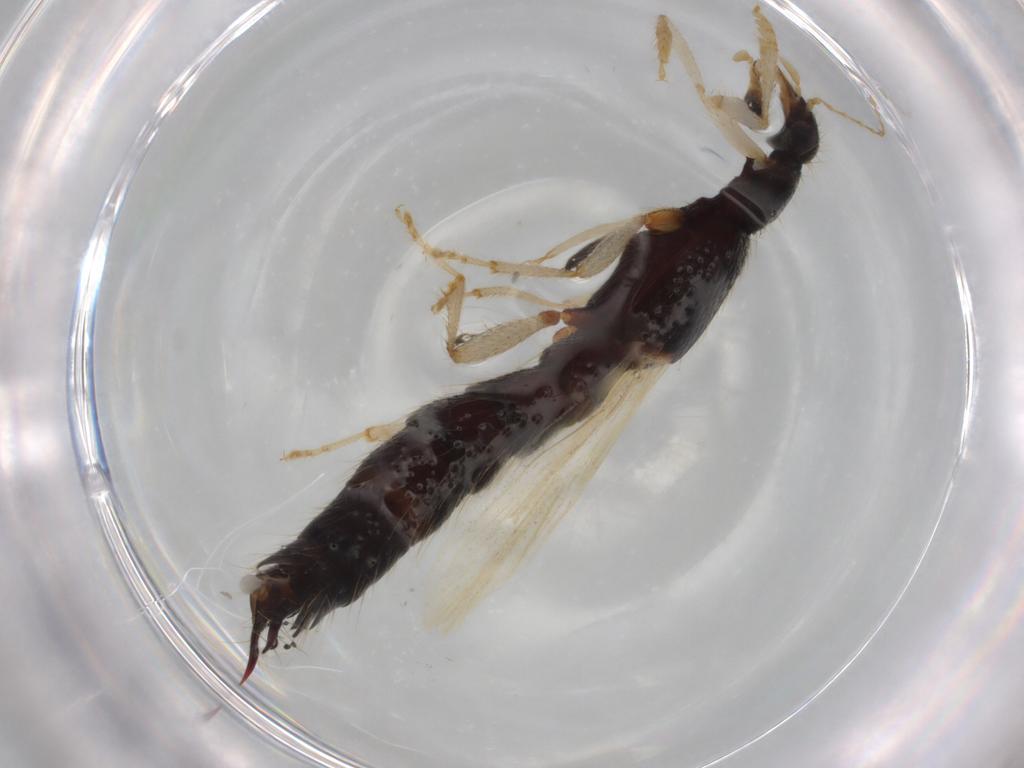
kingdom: Animalia
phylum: Arthropoda
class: Insecta
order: Coleoptera
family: Staphylinidae
